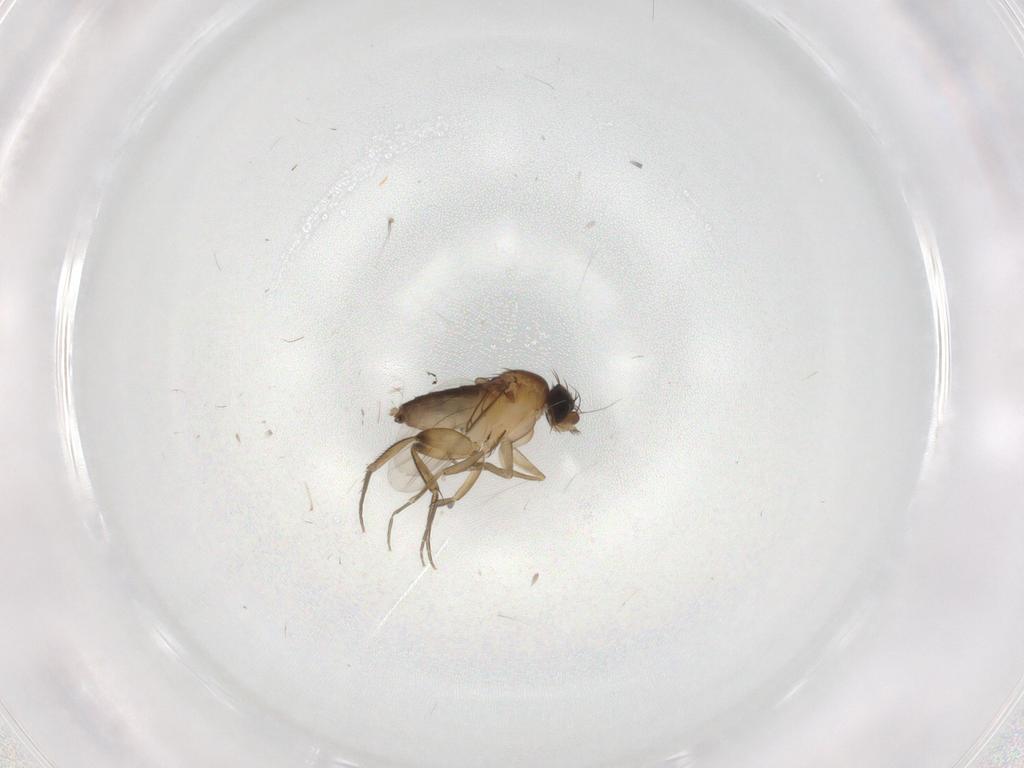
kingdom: Animalia
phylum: Arthropoda
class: Insecta
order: Diptera
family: Phoridae
